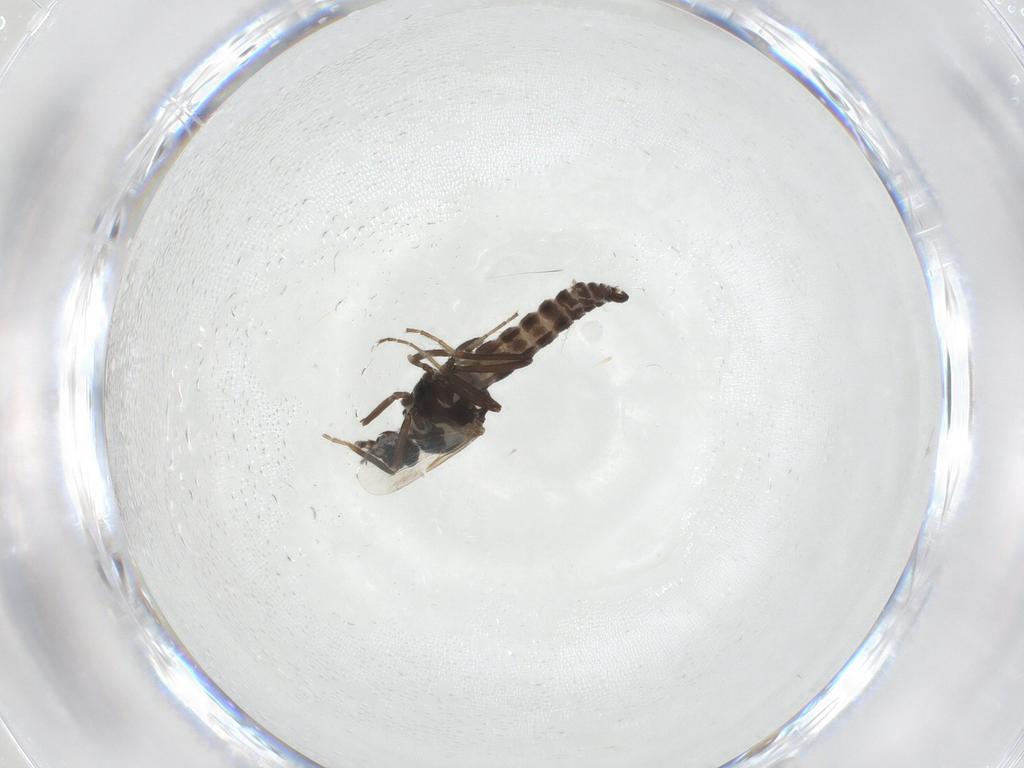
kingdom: Animalia
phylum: Arthropoda
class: Insecta
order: Diptera
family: Ceratopogonidae
